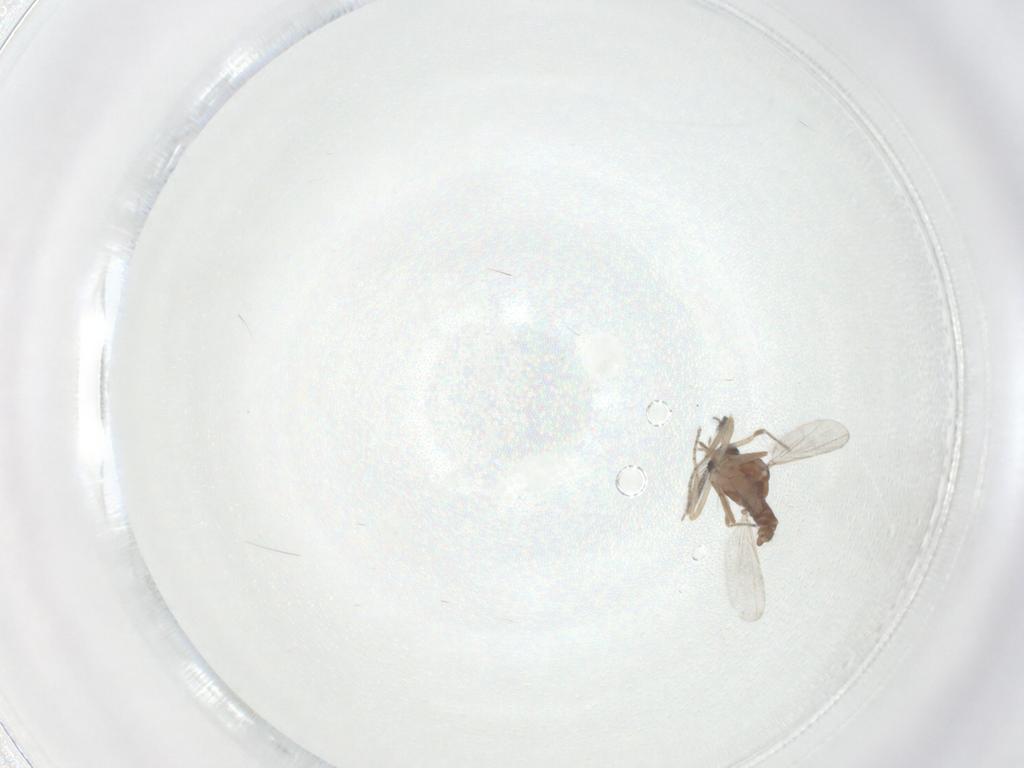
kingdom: Animalia
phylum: Arthropoda
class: Insecta
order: Diptera
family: Ceratopogonidae
